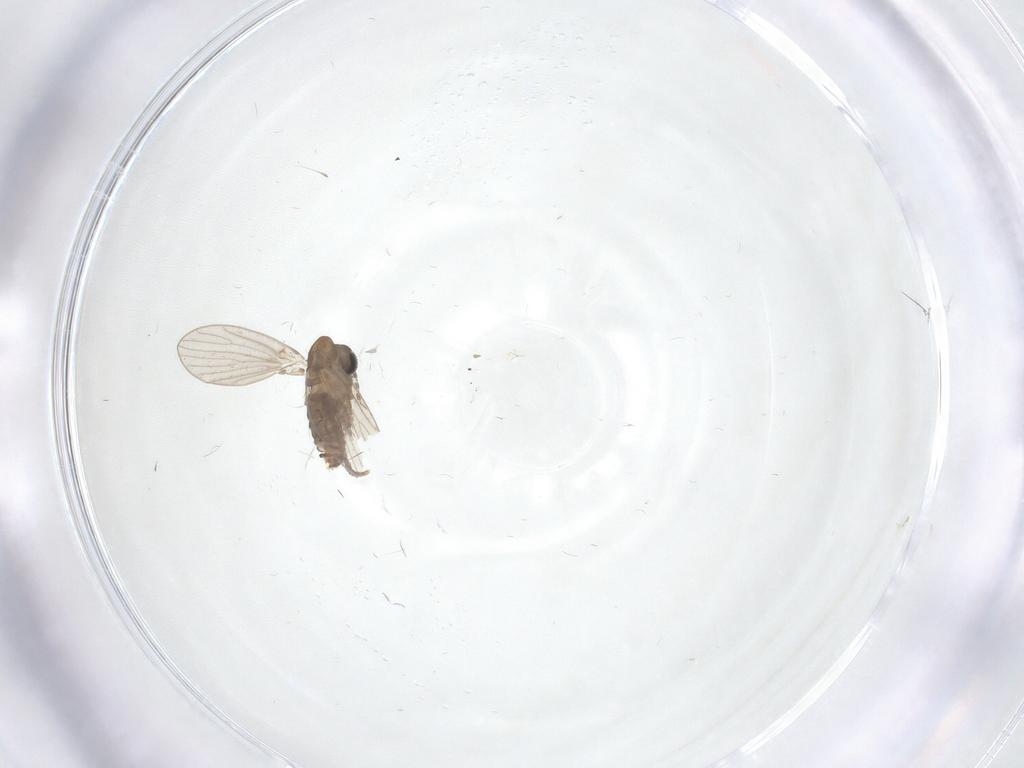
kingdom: Animalia
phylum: Arthropoda
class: Insecta
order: Diptera
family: Psychodidae
